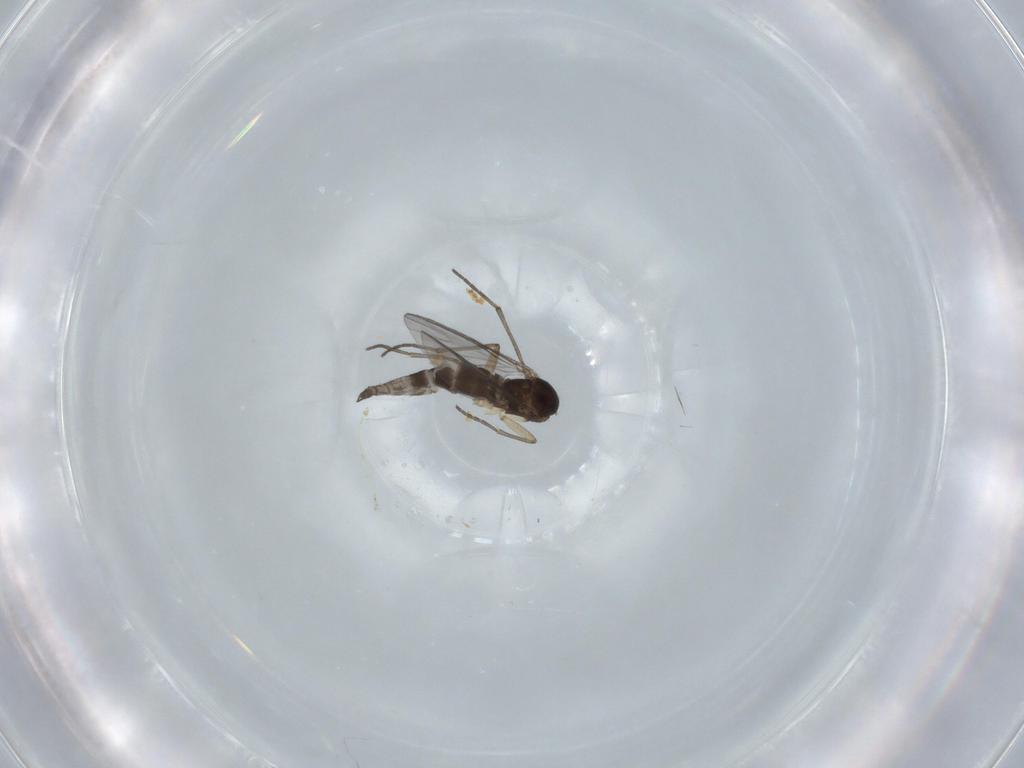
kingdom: Animalia
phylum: Arthropoda
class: Insecta
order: Diptera
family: Sciaridae
